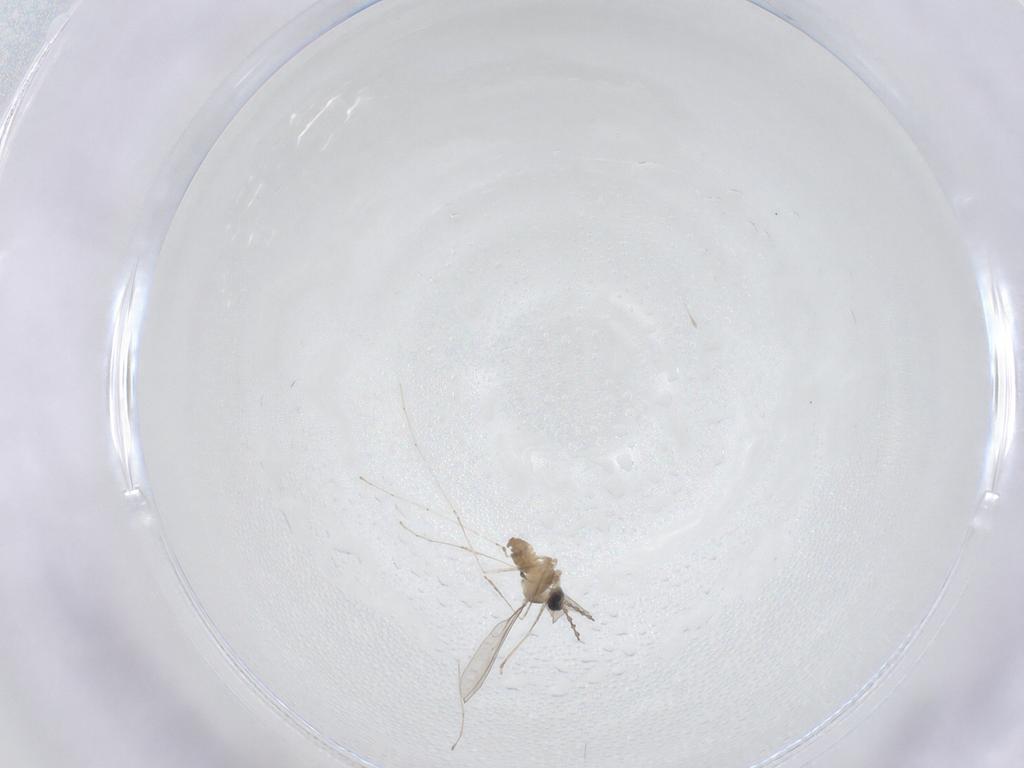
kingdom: Animalia
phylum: Arthropoda
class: Insecta
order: Diptera
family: Cecidomyiidae
